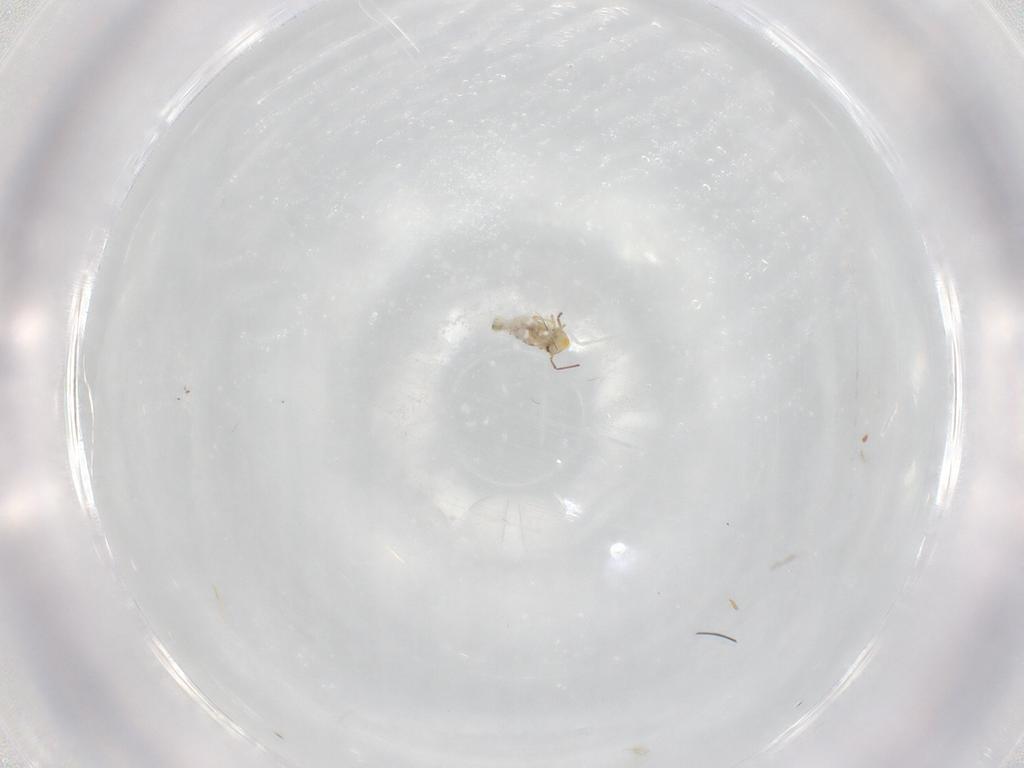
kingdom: Animalia
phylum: Arthropoda
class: Collembola
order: Symphypleona
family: Bourletiellidae
